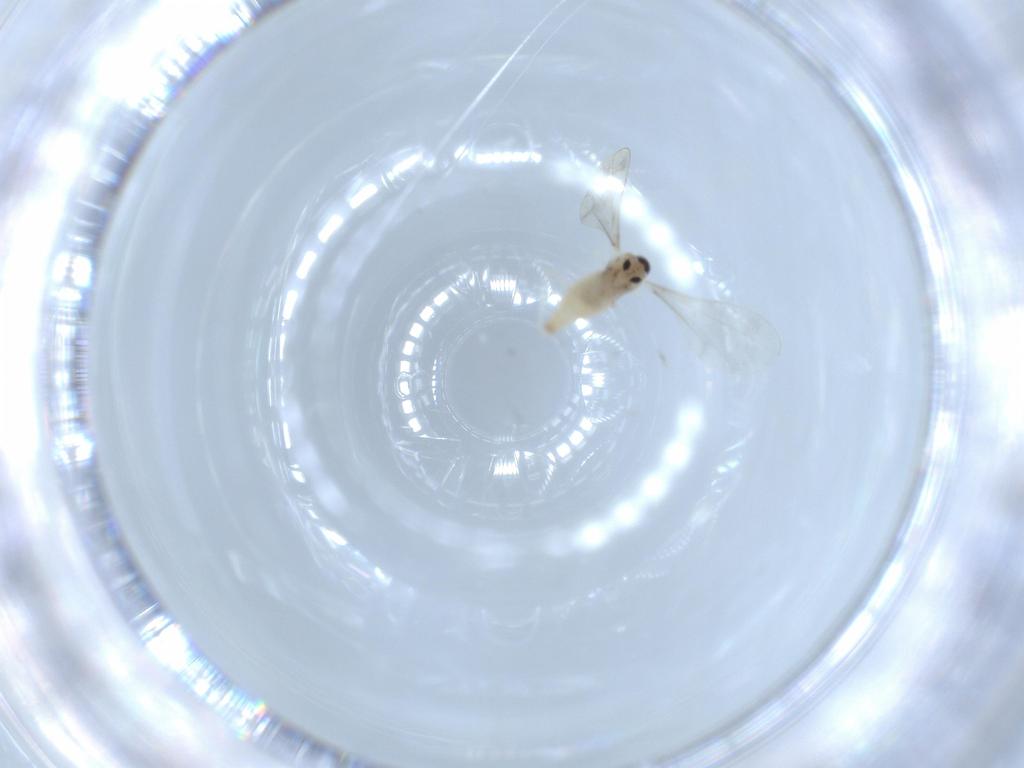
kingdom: Animalia
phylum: Arthropoda
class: Insecta
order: Diptera
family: Cecidomyiidae
